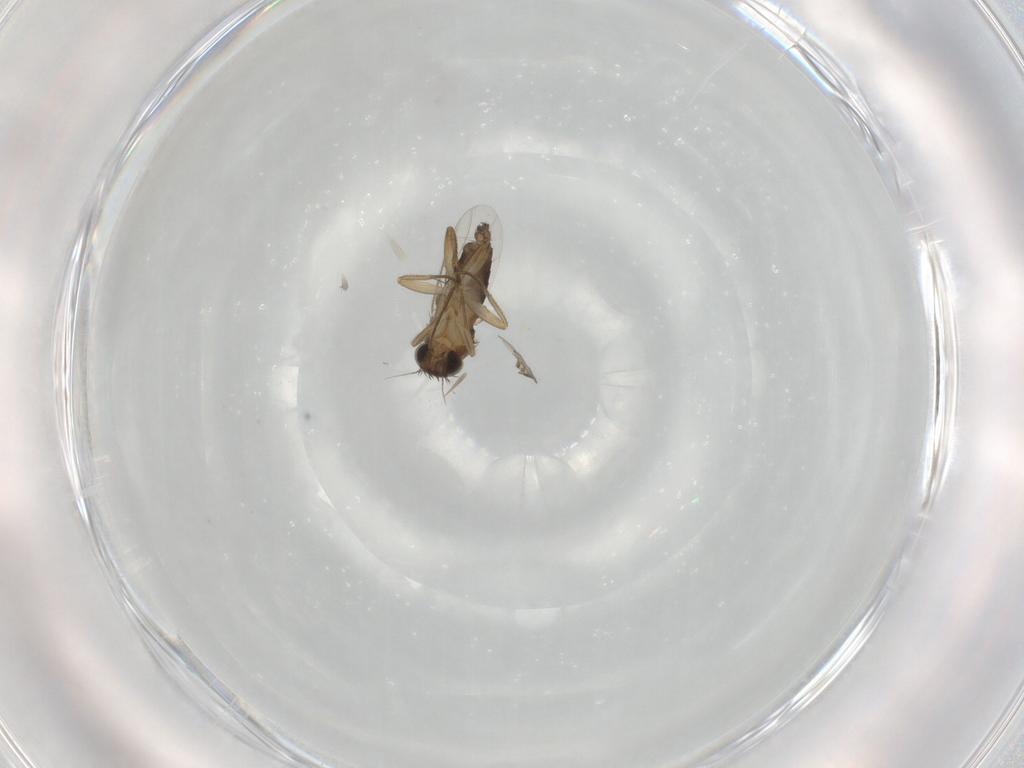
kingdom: Animalia
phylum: Arthropoda
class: Insecta
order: Diptera
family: Phoridae
